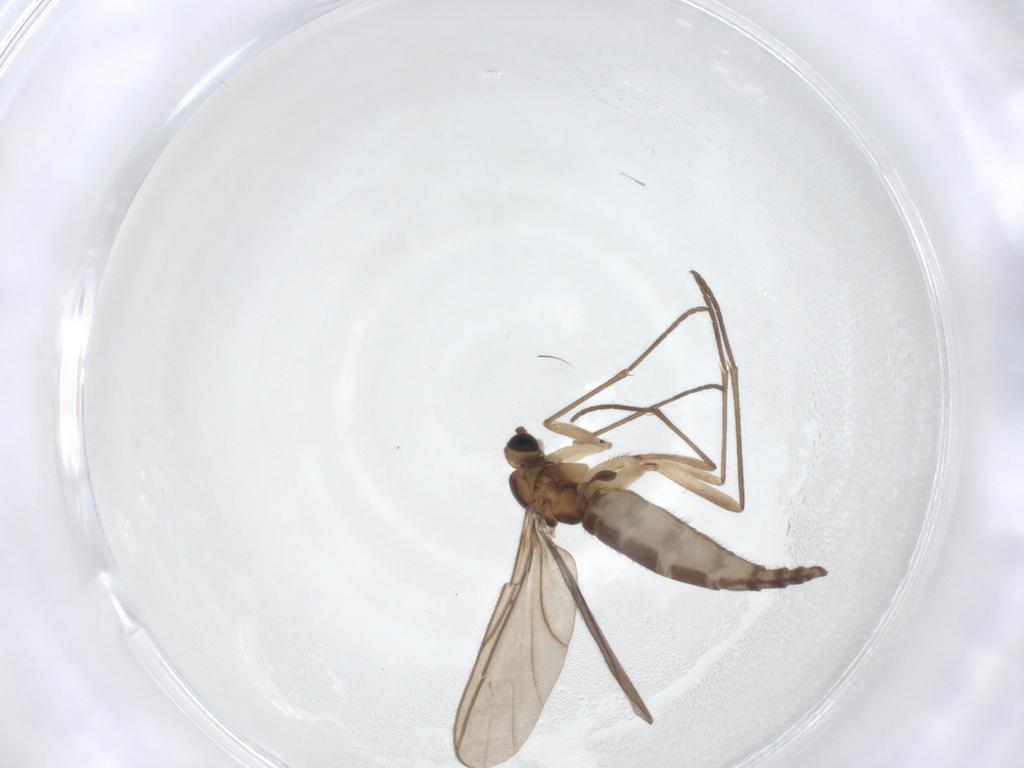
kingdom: Animalia
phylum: Arthropoda
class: Insecta
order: Diptera
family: Sciaridae
